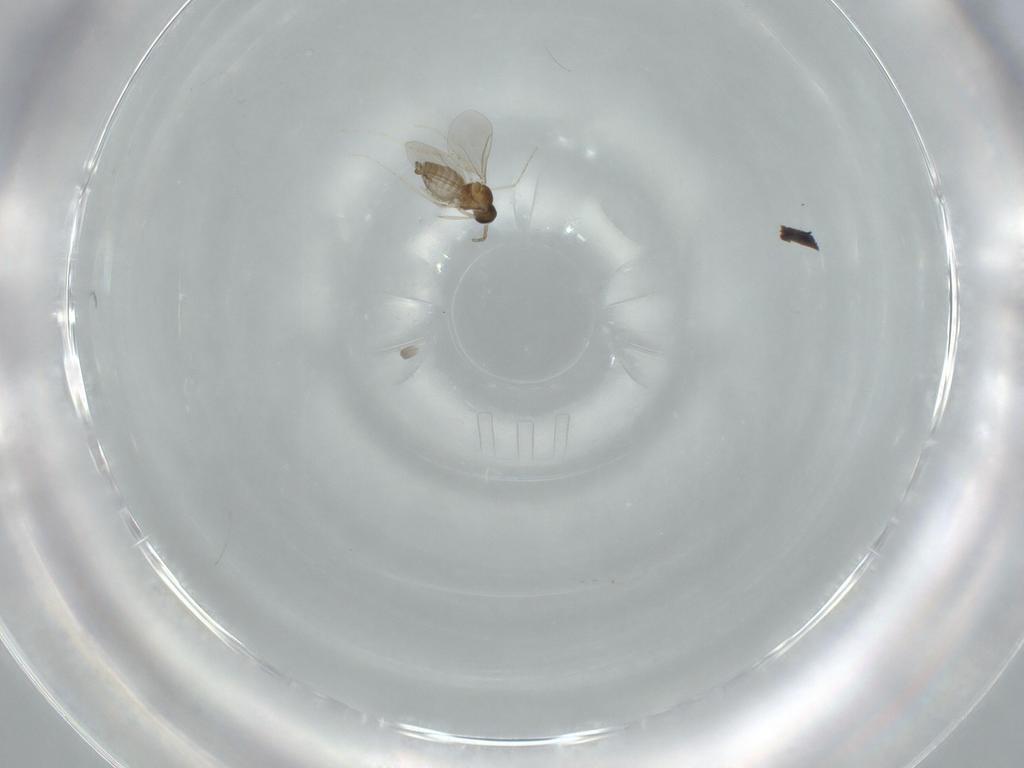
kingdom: Animalia
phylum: Arthropoda
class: Insecta
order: Diptera
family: Cecidomyiidae
